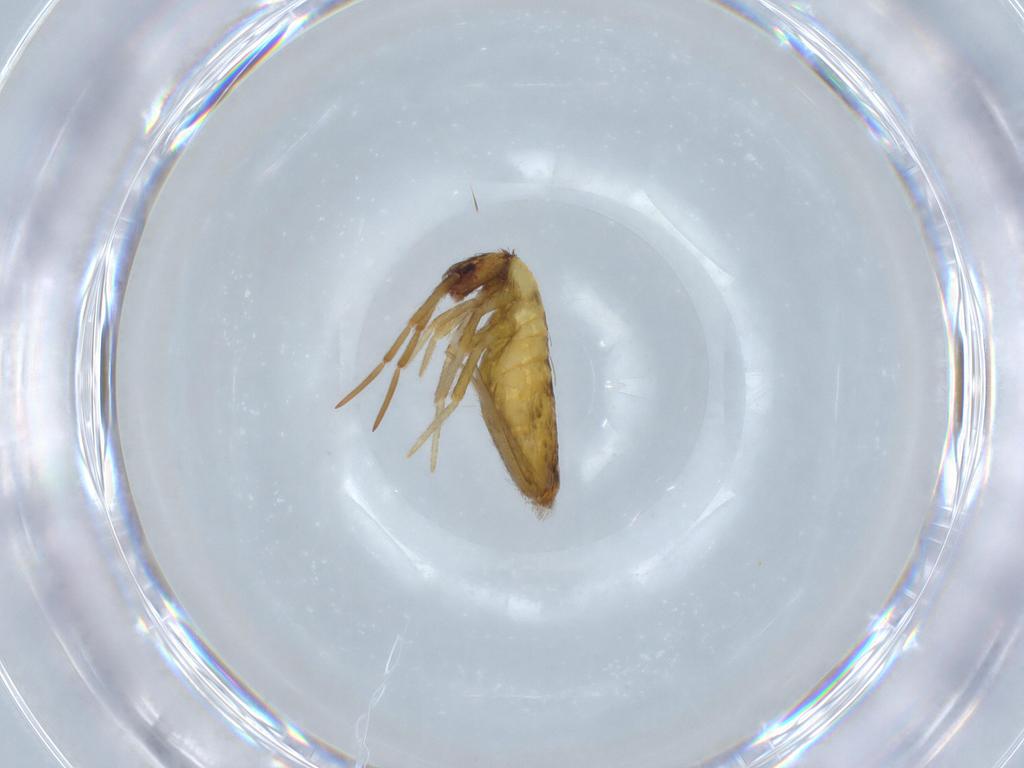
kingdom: Animalia
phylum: Arthropoda
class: Collembola
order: Entomobryomorpha
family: Entomobryidae
